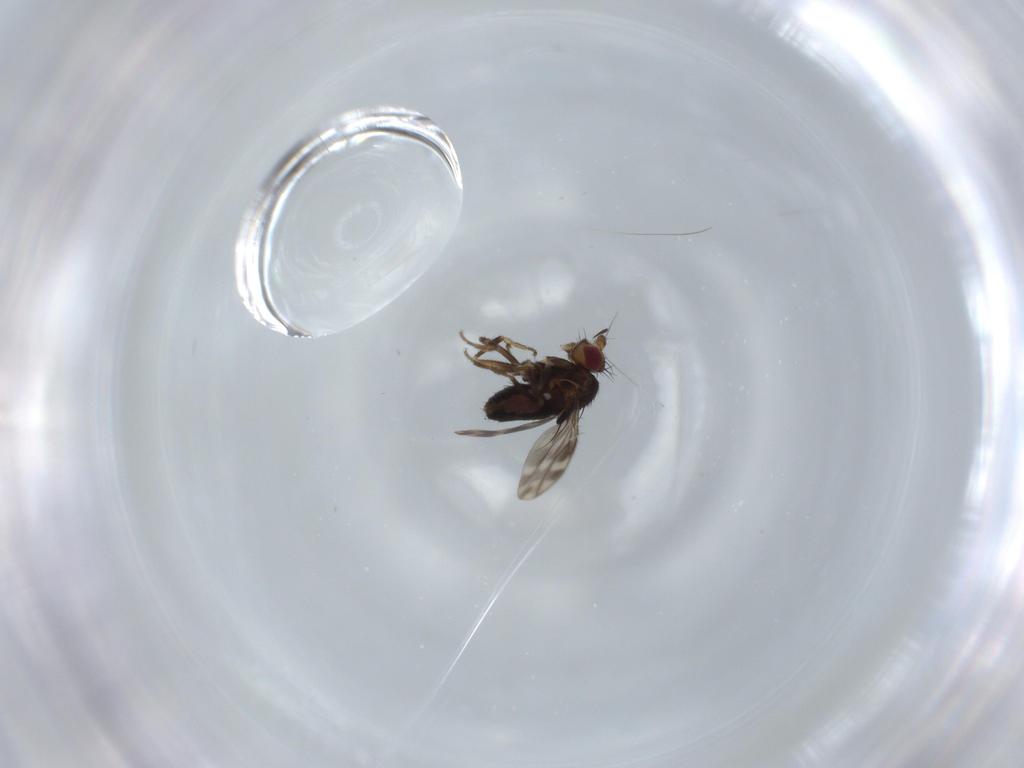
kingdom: Animalia
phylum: Arthropoda
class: Insecta
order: Diptera
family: Sphaeroceridae
